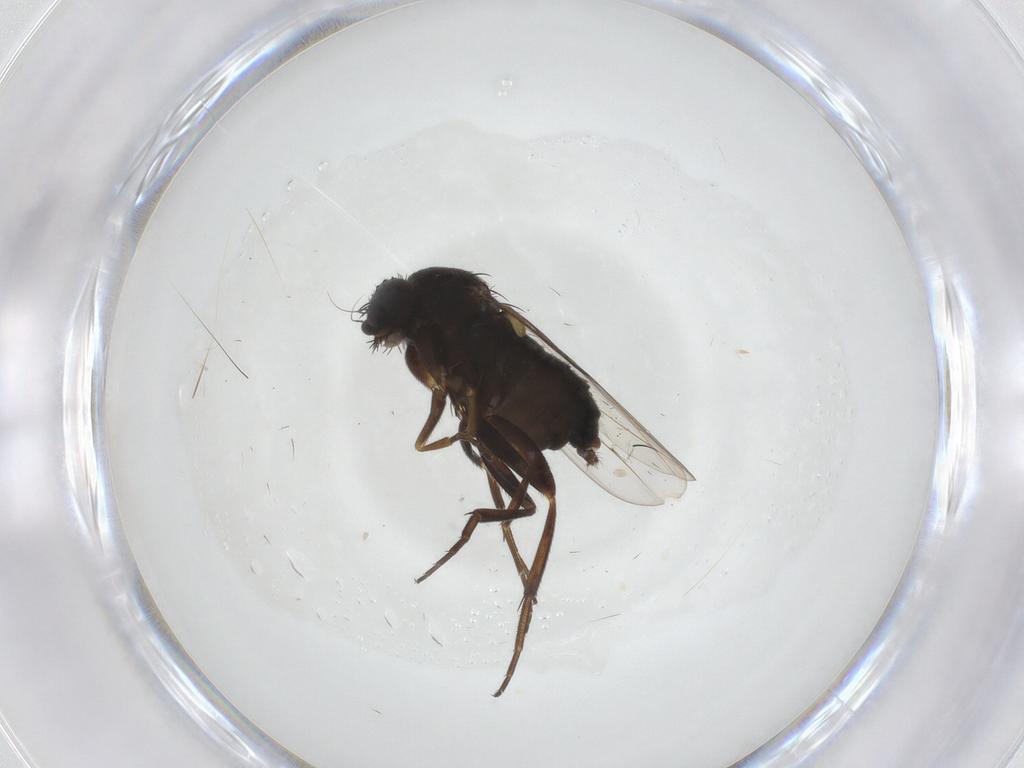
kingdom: Animalia
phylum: Arthropoda
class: Insecta
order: Diptera
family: Phoridae
